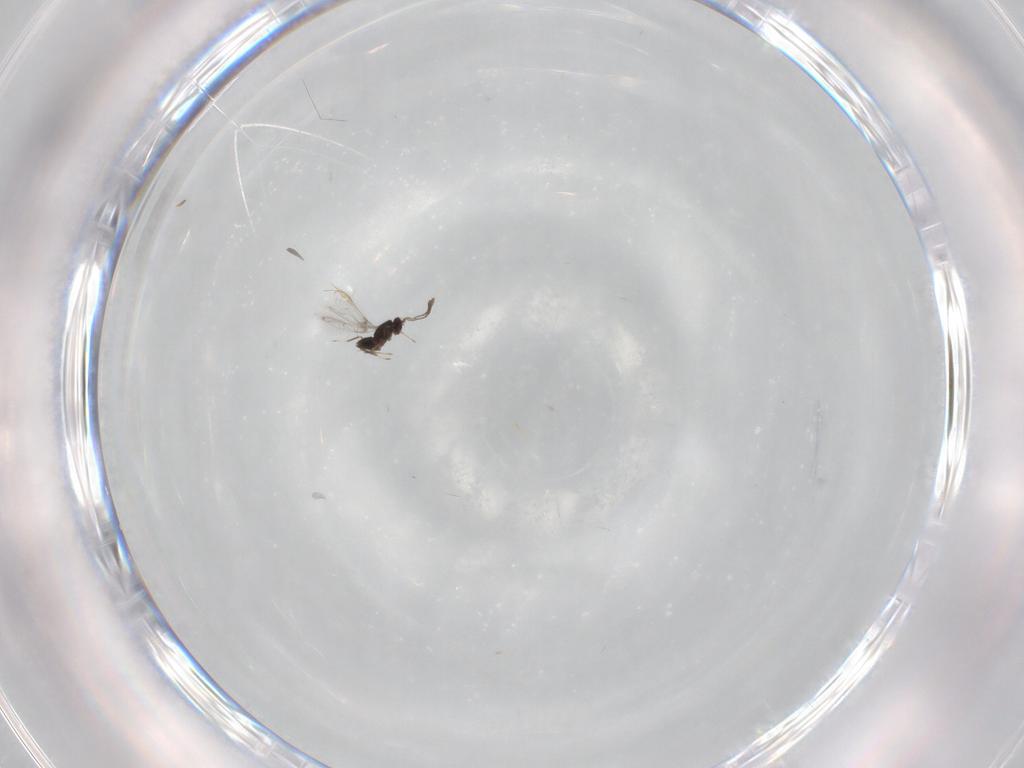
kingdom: Animalia
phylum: Arthropoda
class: Insecta
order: Hymenoptera
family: Mymaridae
